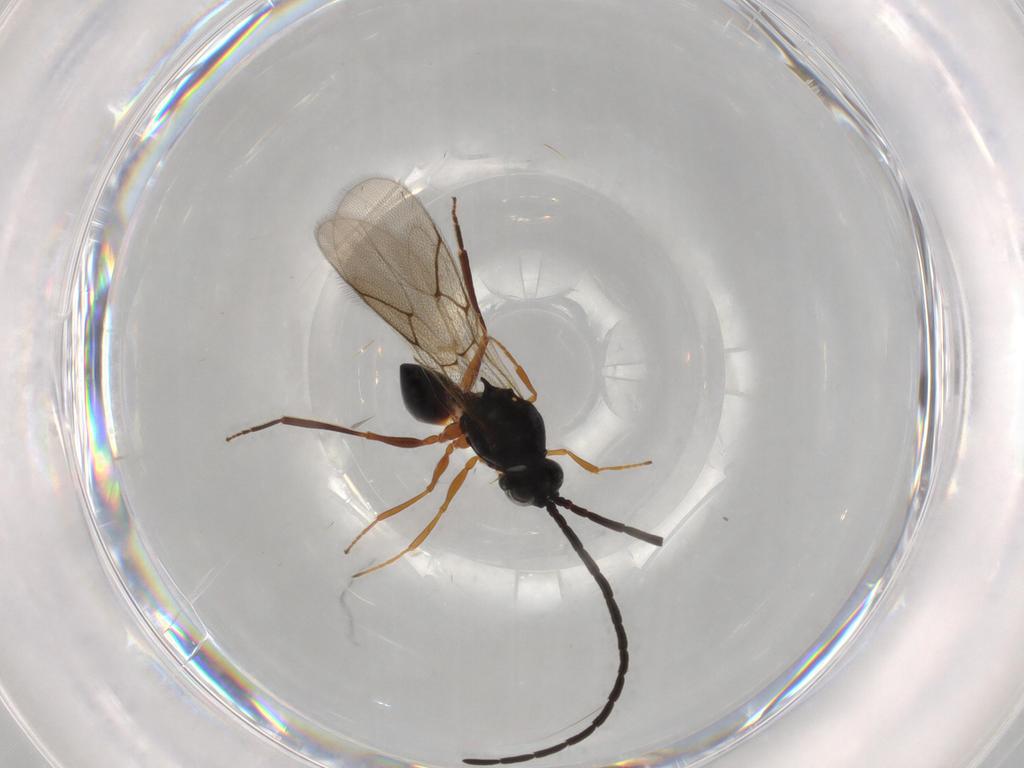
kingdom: Animalia
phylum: Arthropoda
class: Insecta
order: Hymenoptera
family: Figitidae
